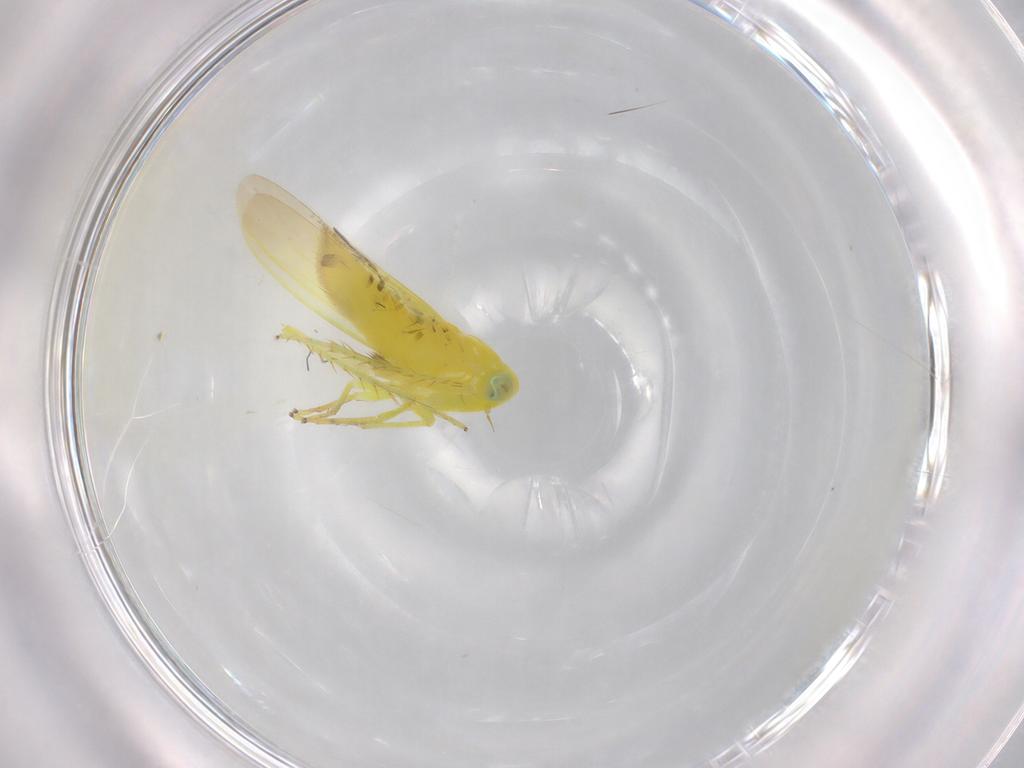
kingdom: Animalia
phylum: Arthropoda
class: Insecta
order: Hemiptera
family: Cicadellidae
